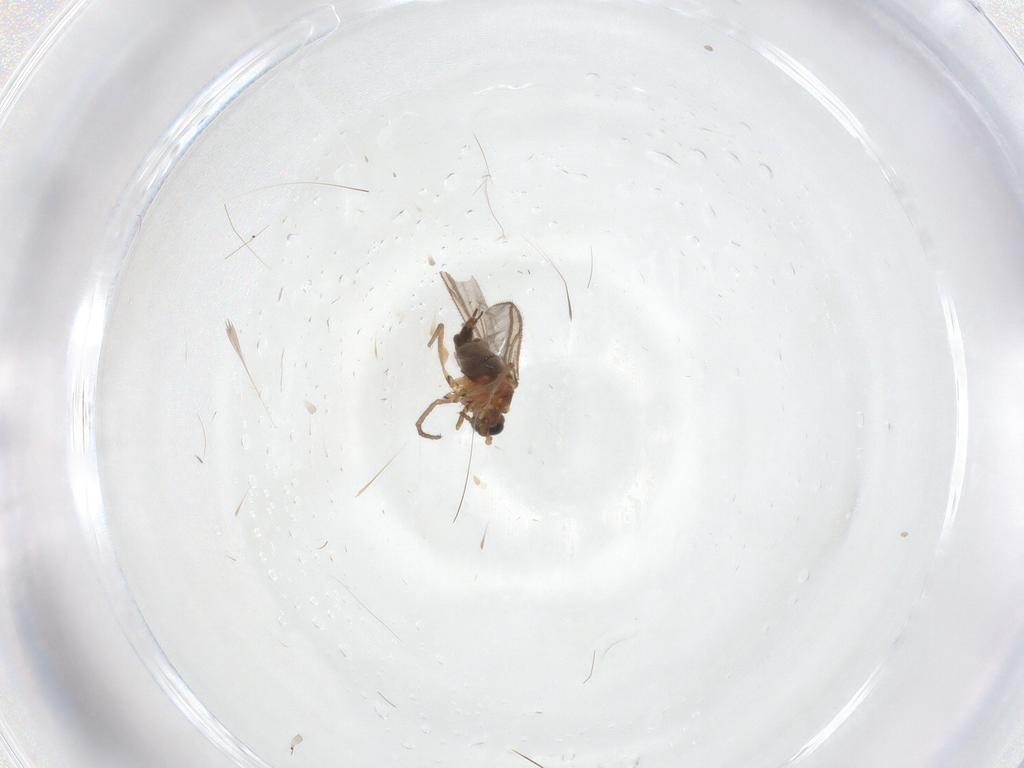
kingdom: Animalia
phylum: Arthropoda
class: Insecta
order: Diptera
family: Sciaridae
